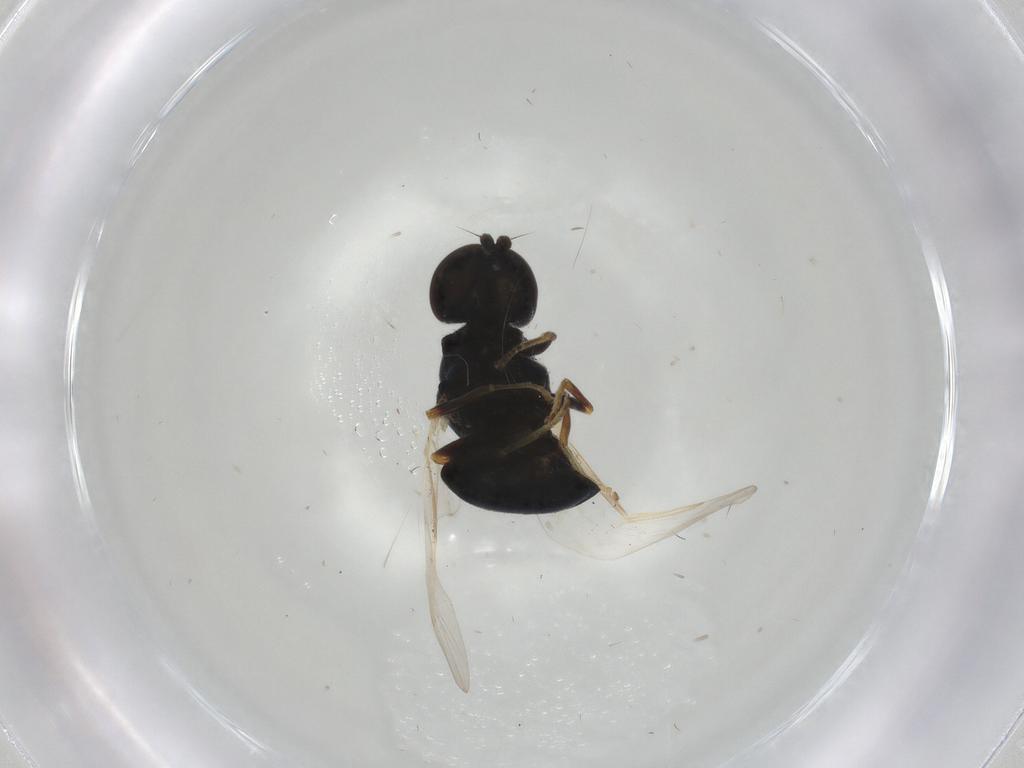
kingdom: Animalia
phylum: Arthropoda
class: Insecta
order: Diptera
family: Stratiomyidae
